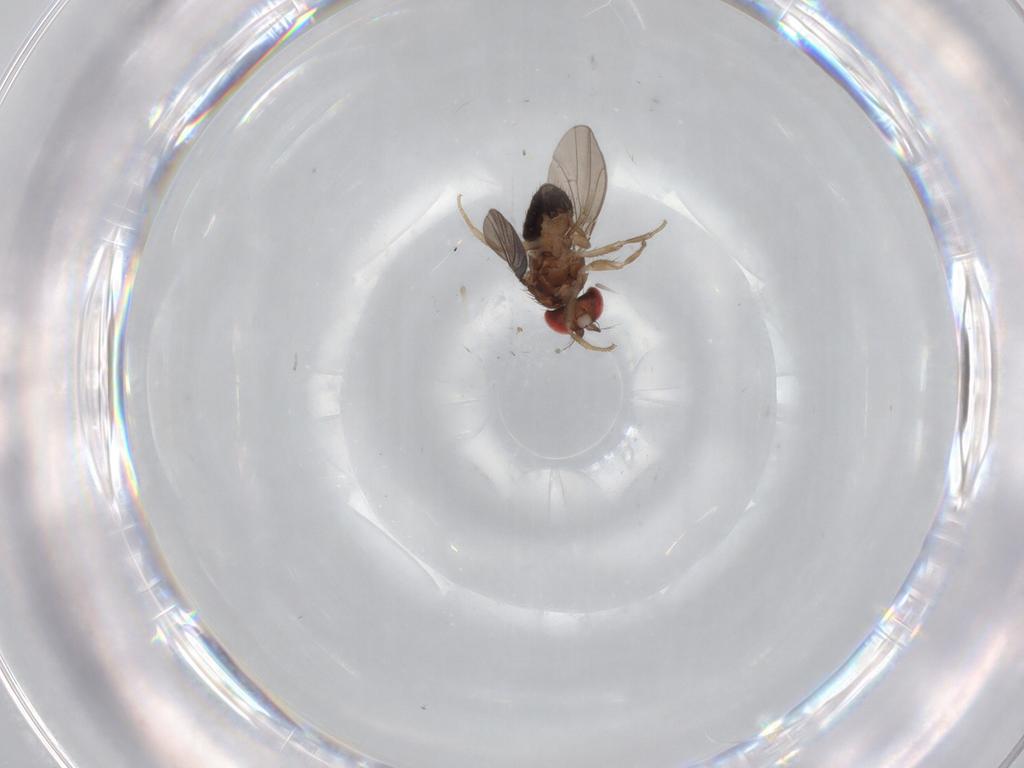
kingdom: Animalia
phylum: Arthropoda
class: Insecta
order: Diptera
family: Drosophilidae
